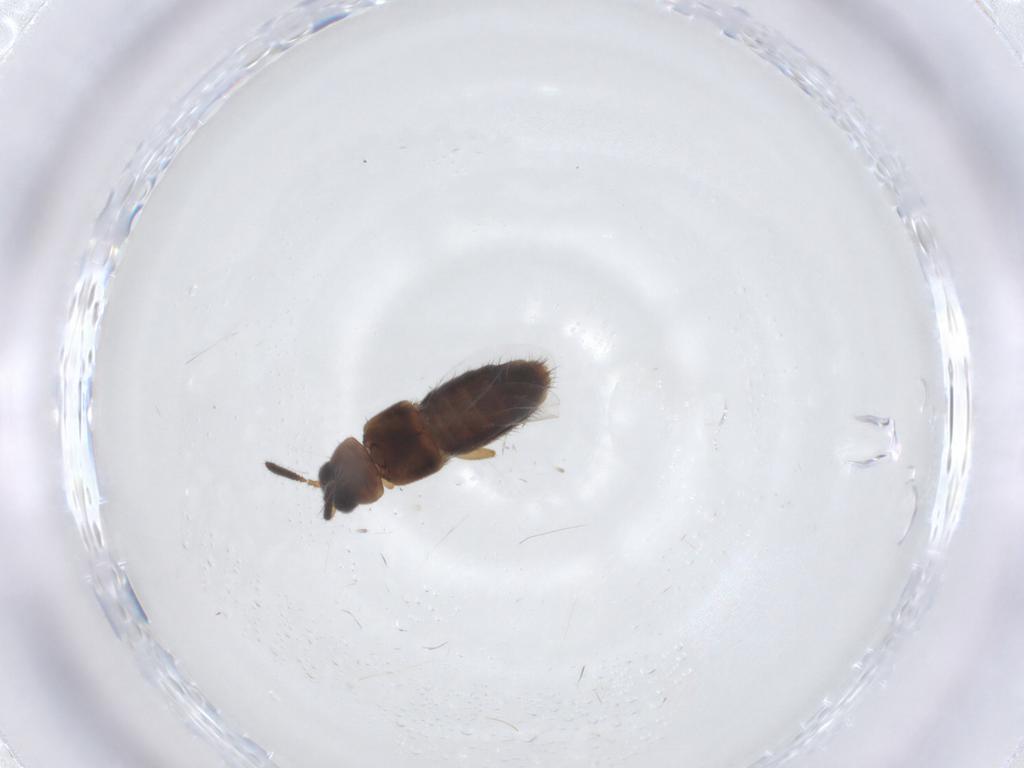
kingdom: Animalia
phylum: Arthropoda
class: Insecta
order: Coleoptera
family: Staphylinidae
